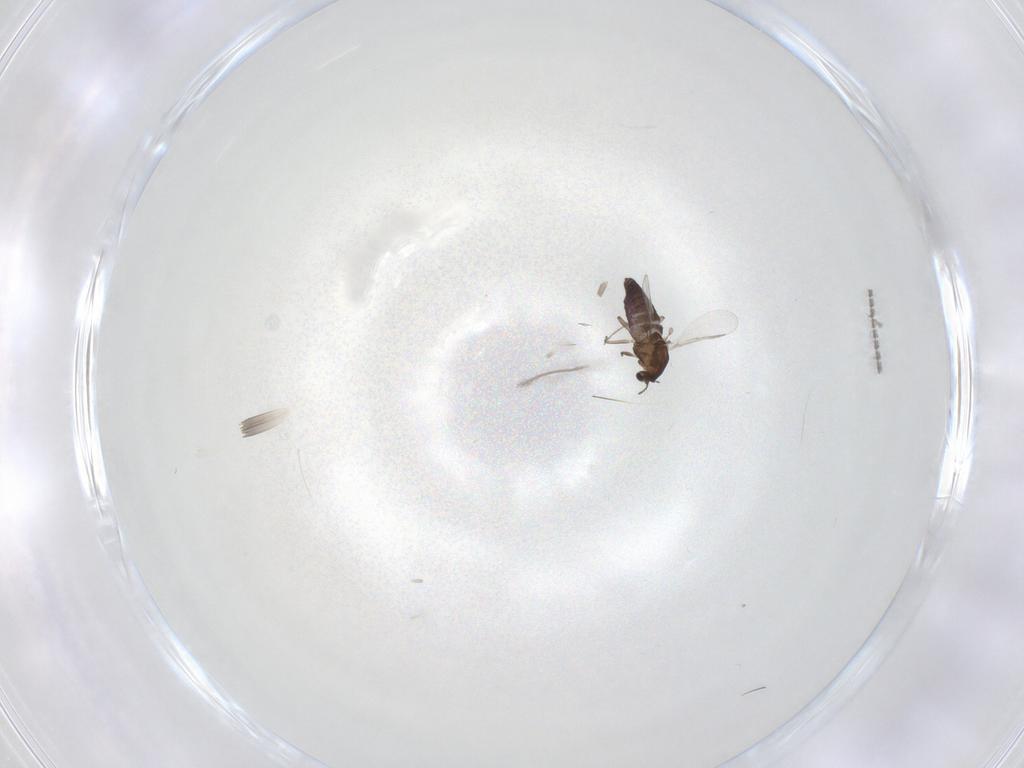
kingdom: Animalia
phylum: Arthropoda
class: Insecta
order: Diptera
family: Chironomidae
